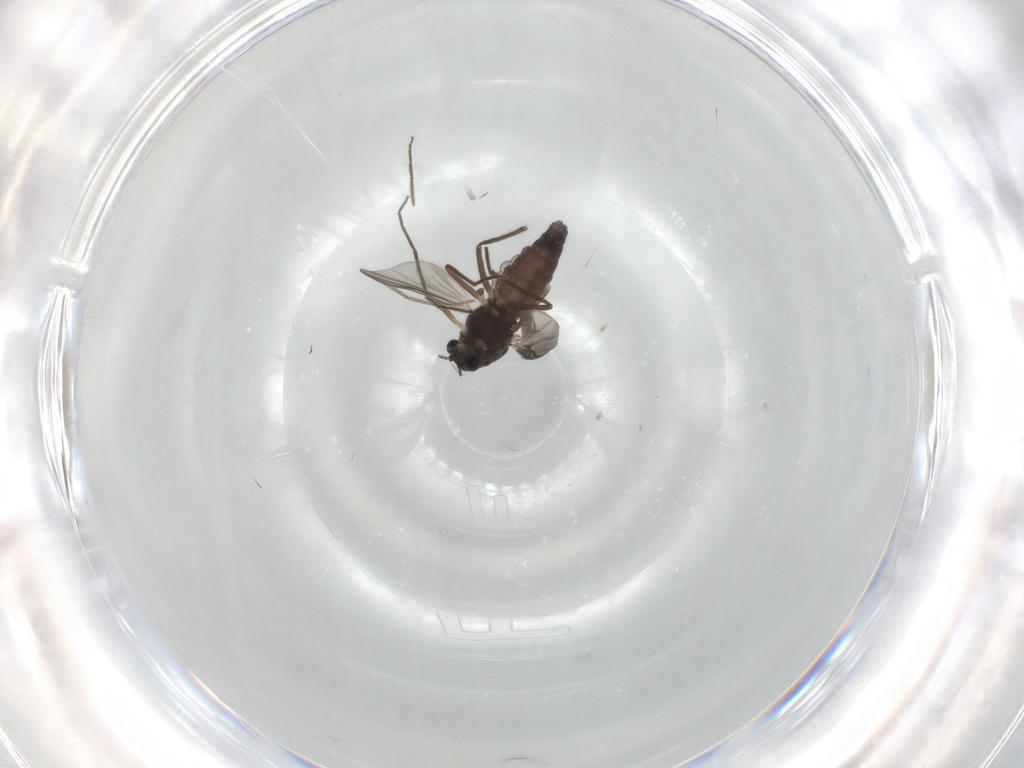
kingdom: Animalia
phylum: Arthropoda
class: Insecta
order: Diptera
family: Chironomidae
